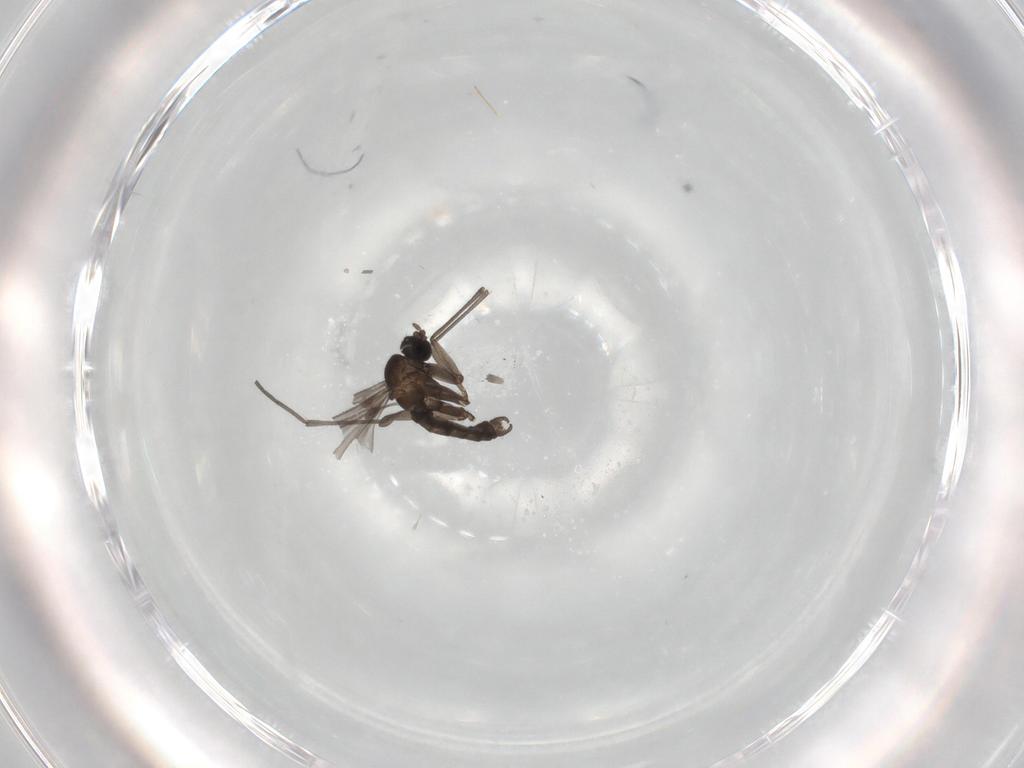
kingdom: Animalia
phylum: Arthropoda
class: Insecta
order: Diptera
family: Sciaridae
